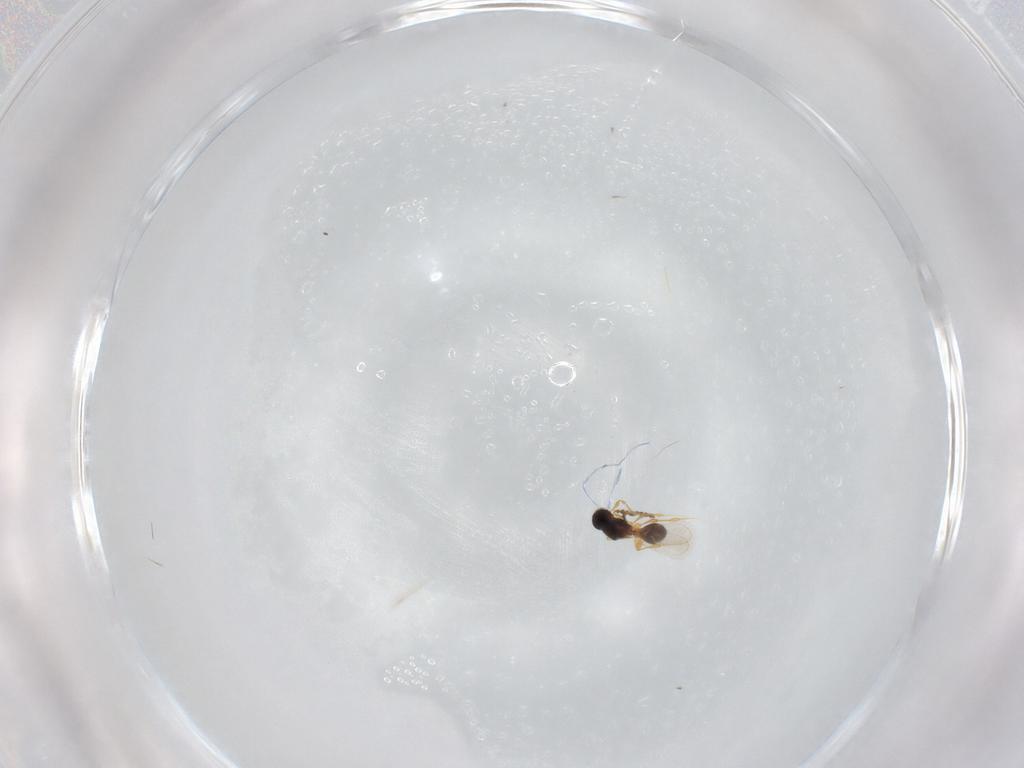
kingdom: Animalia
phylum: Arthropoda
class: Insecta
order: Hymenoptera
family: Platygastridae
